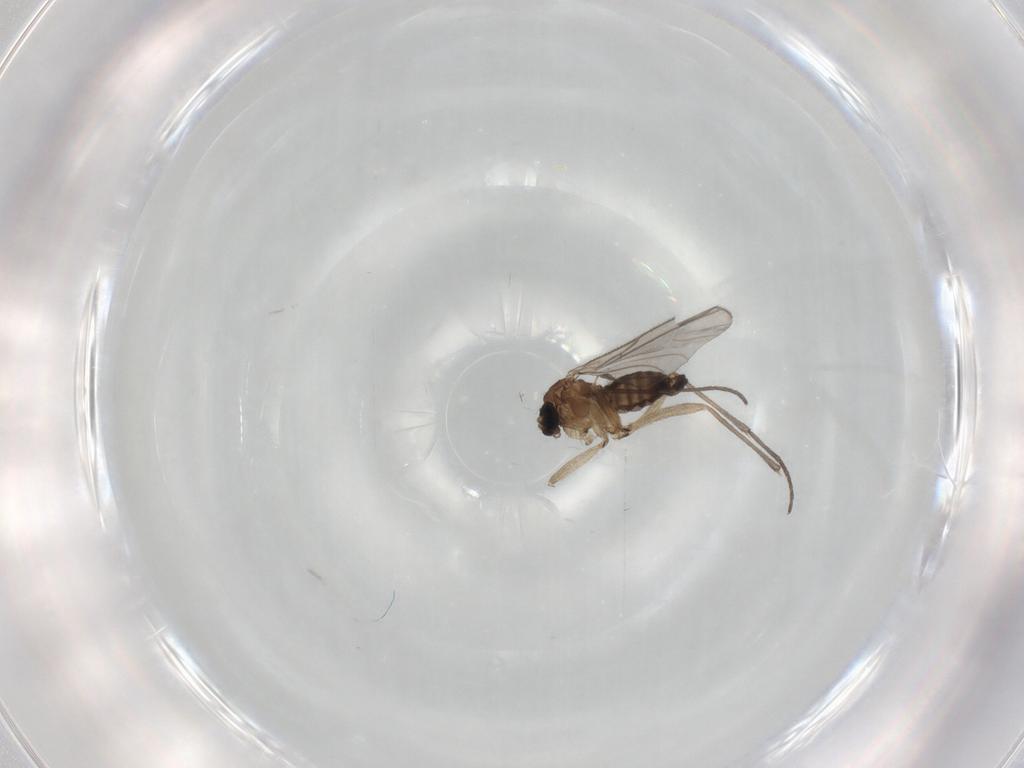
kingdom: Animalia
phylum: Arthropoda
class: Insecta
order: Diptera
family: Sciaridae
